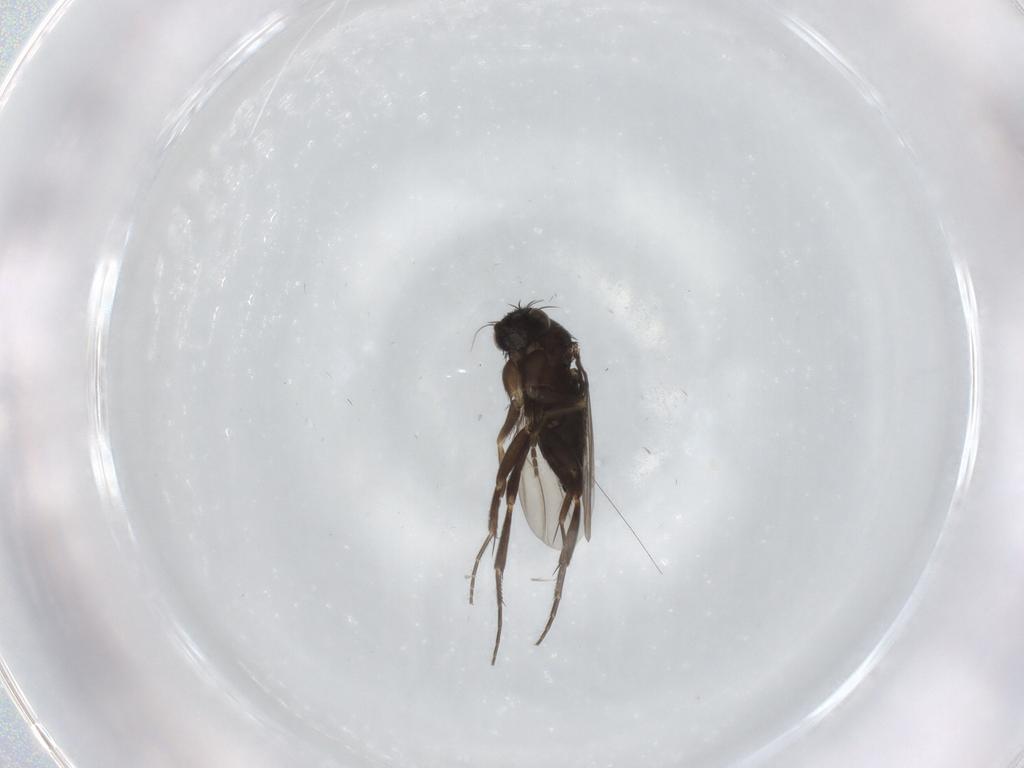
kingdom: Animalia
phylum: Arthropoda
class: Insecta
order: Diptera
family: Phoridae
